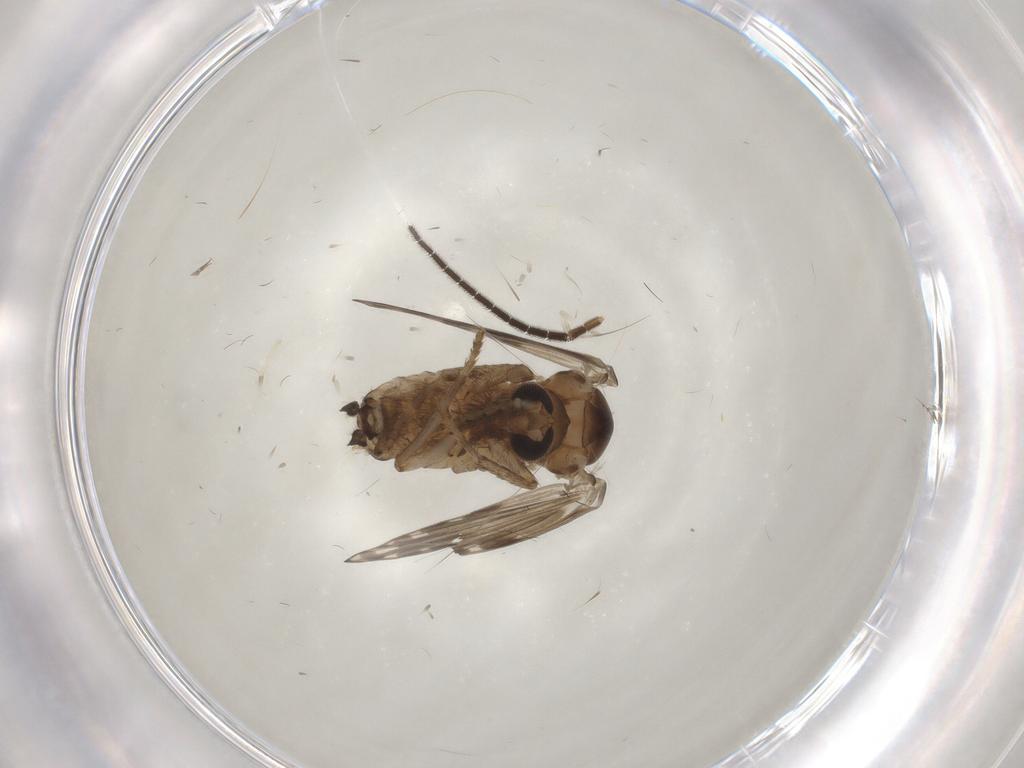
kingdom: Animalia
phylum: Arthropoda
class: Insecta
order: Diptera
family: Psychodidae
